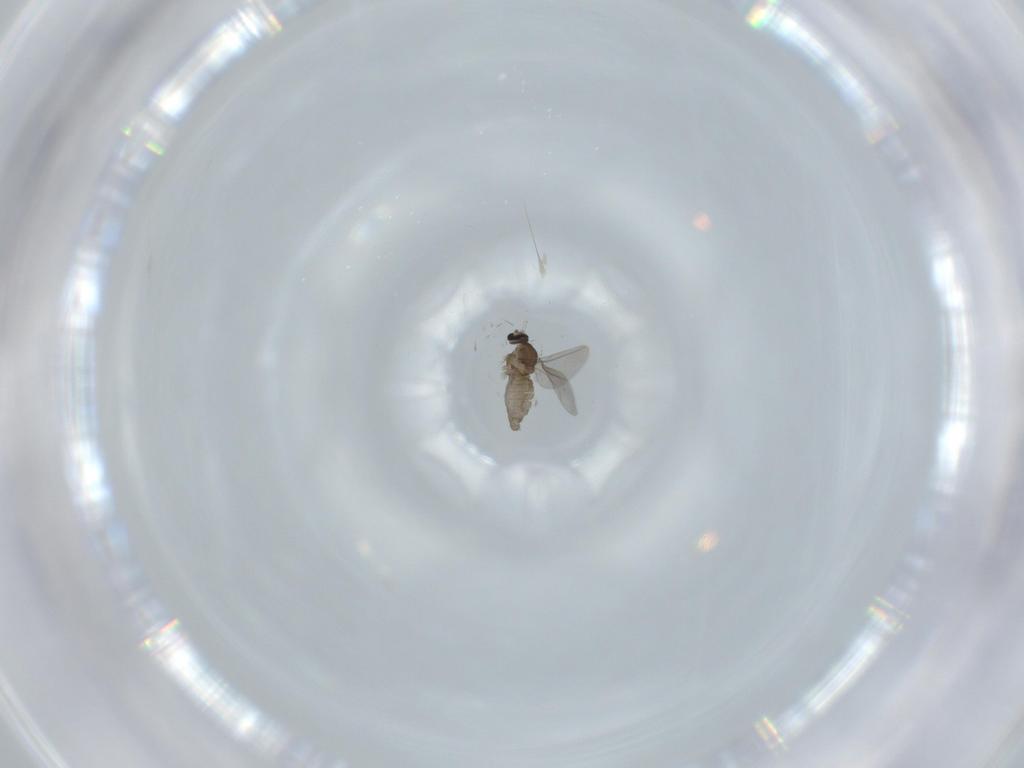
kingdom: Animalia
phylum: Arthropoda
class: Insecta
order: Diptera
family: Cecidomyiidae
